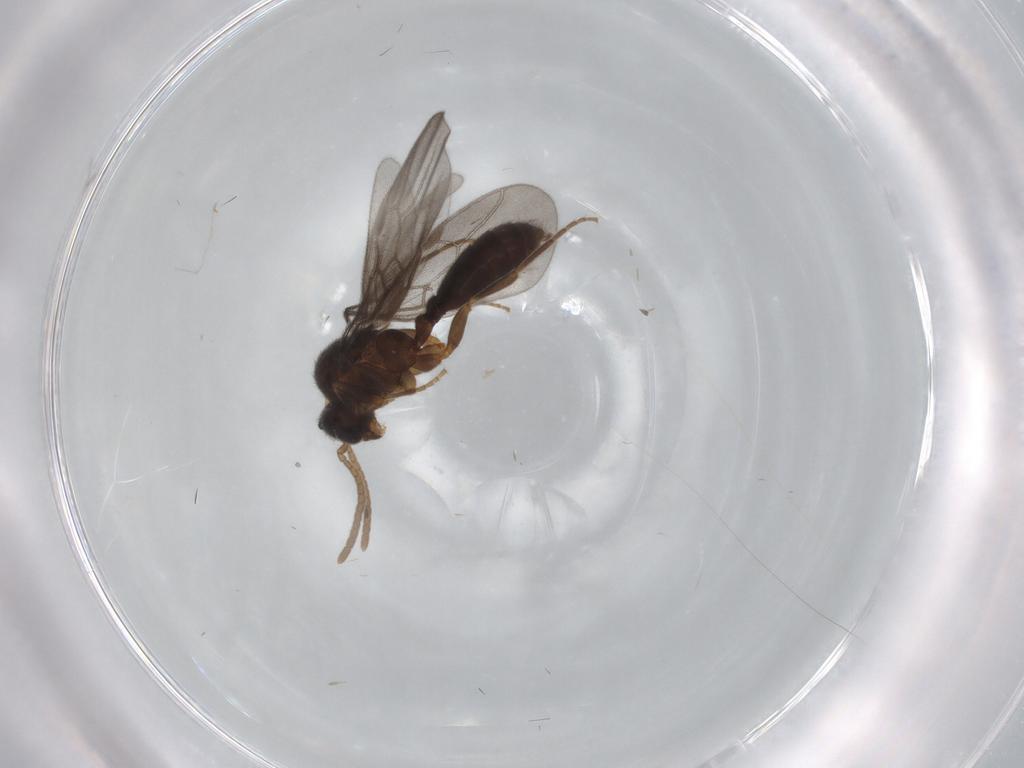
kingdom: Animalia
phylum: Arthropoda
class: Insecta
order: Hymenoptera
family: Formicidae
